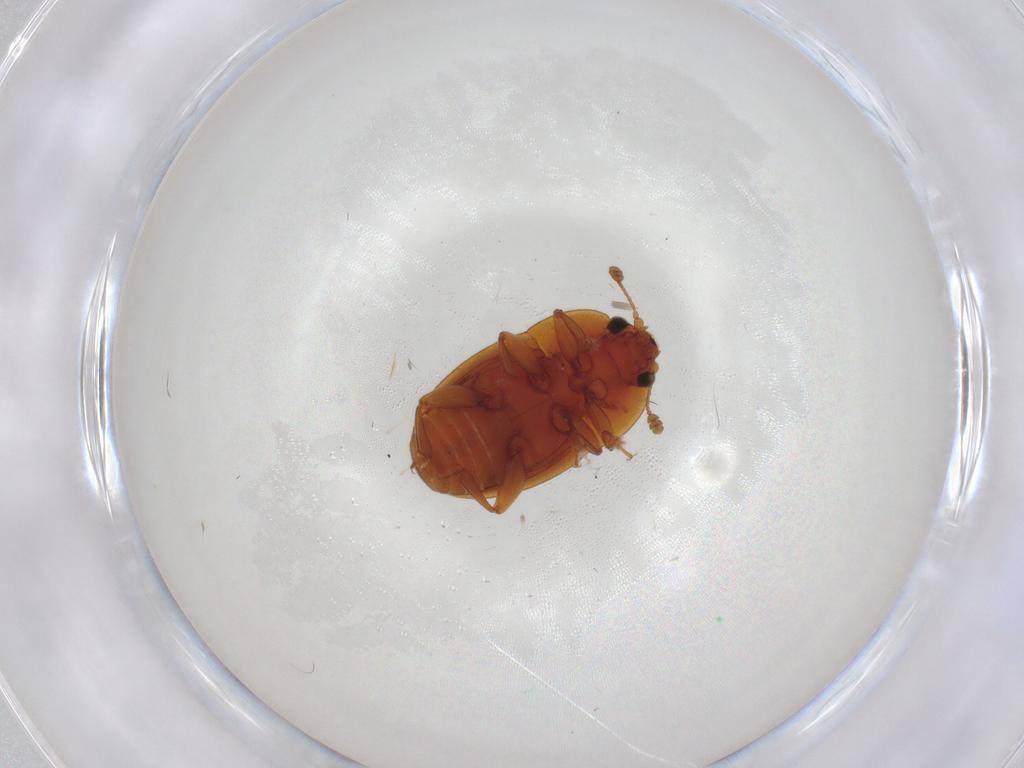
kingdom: Animalia
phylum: Arthropoda
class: Insecta
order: Coleoptera
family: Nitidulidae
